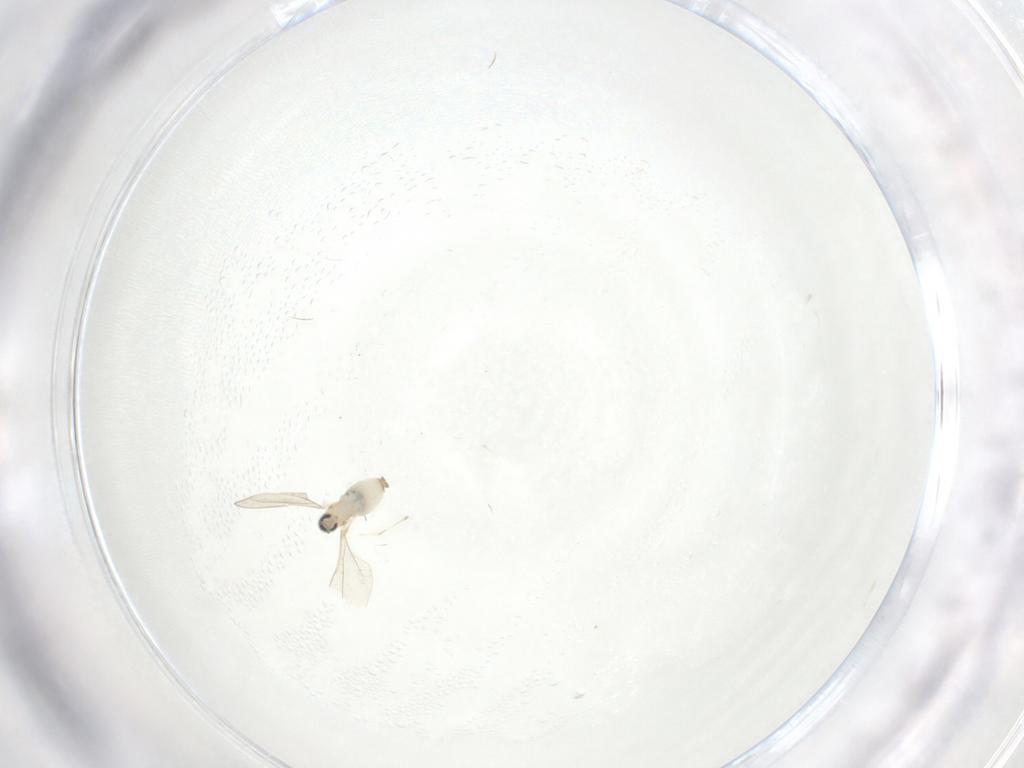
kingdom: Animalia
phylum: Arthropoda
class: Insecta
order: Diptera
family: Cecidomyiidae
